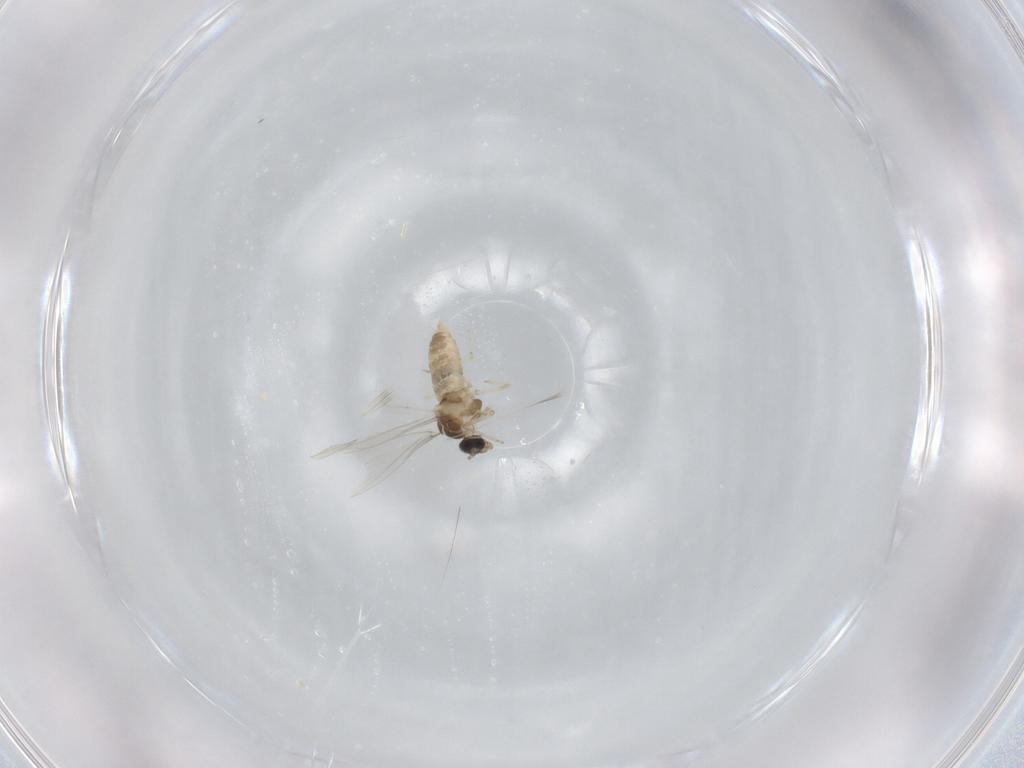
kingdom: Animalia
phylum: Arthropoda
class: Insecta
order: Diptera
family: Cecidomyiidae
